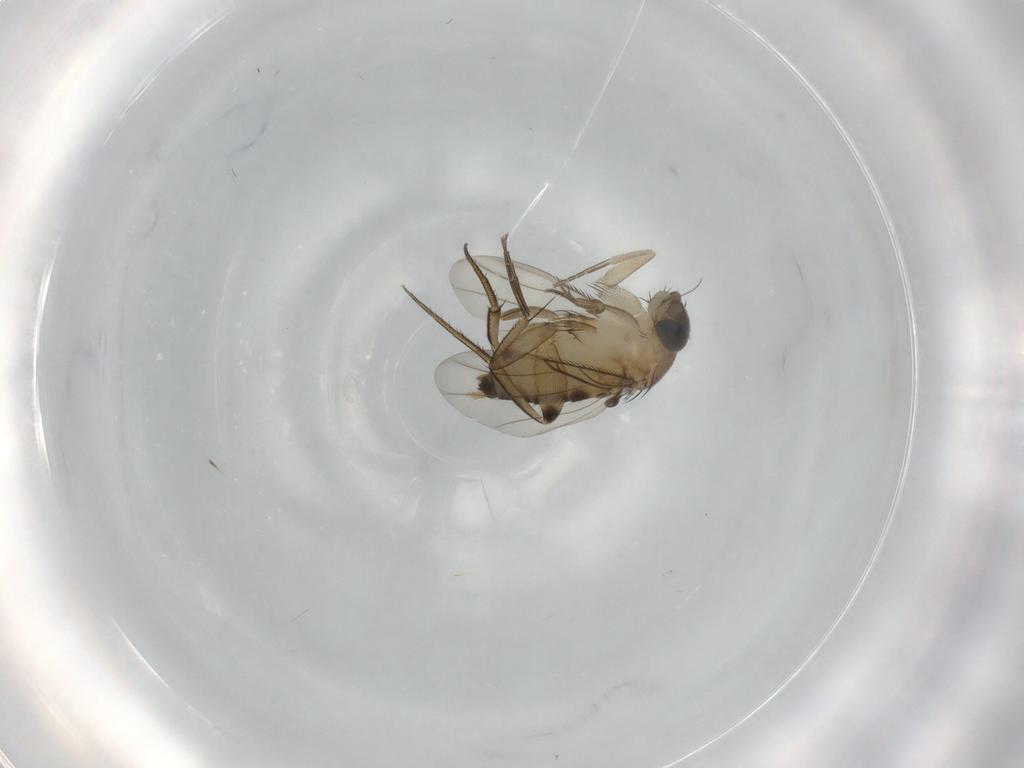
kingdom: Animalia
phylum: Arthropoda
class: Insecta
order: Diptera
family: Phoridae
